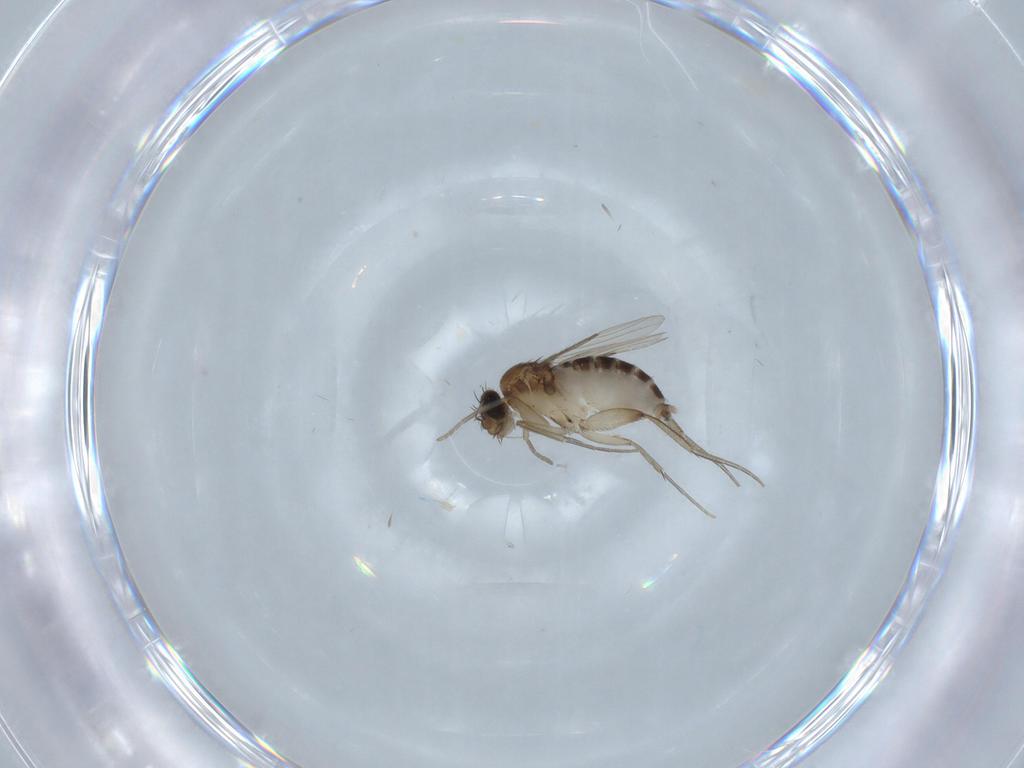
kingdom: Animalia
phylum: Arthropoda
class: Insecta
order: Diptera
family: Phoridae
